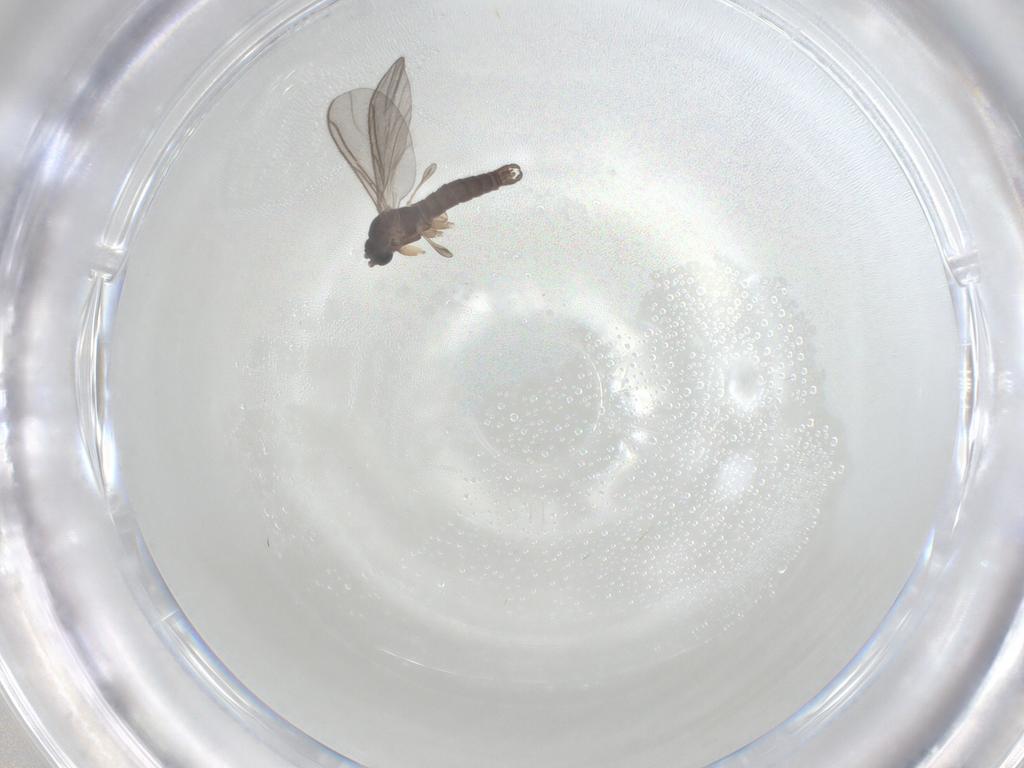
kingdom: Animalia
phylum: Arthropoda
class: Insecta
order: Diptera
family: Sciaridae
